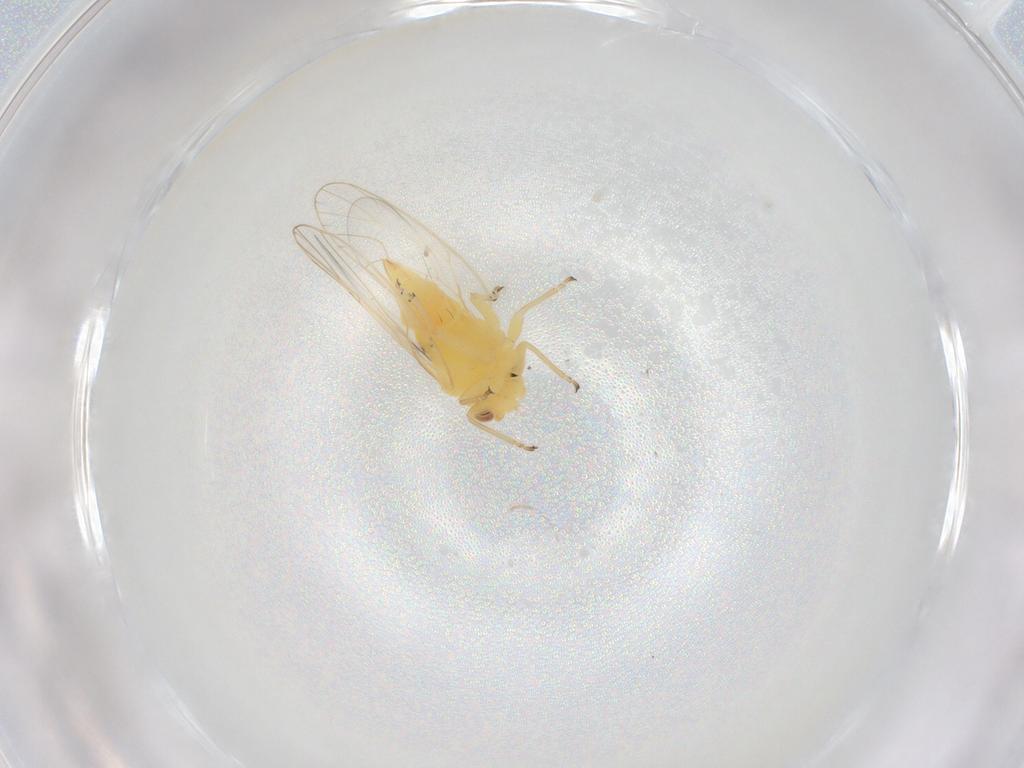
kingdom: Animalia
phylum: Arthropoda
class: Insecta
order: Hemiptera
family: Psyllidae
